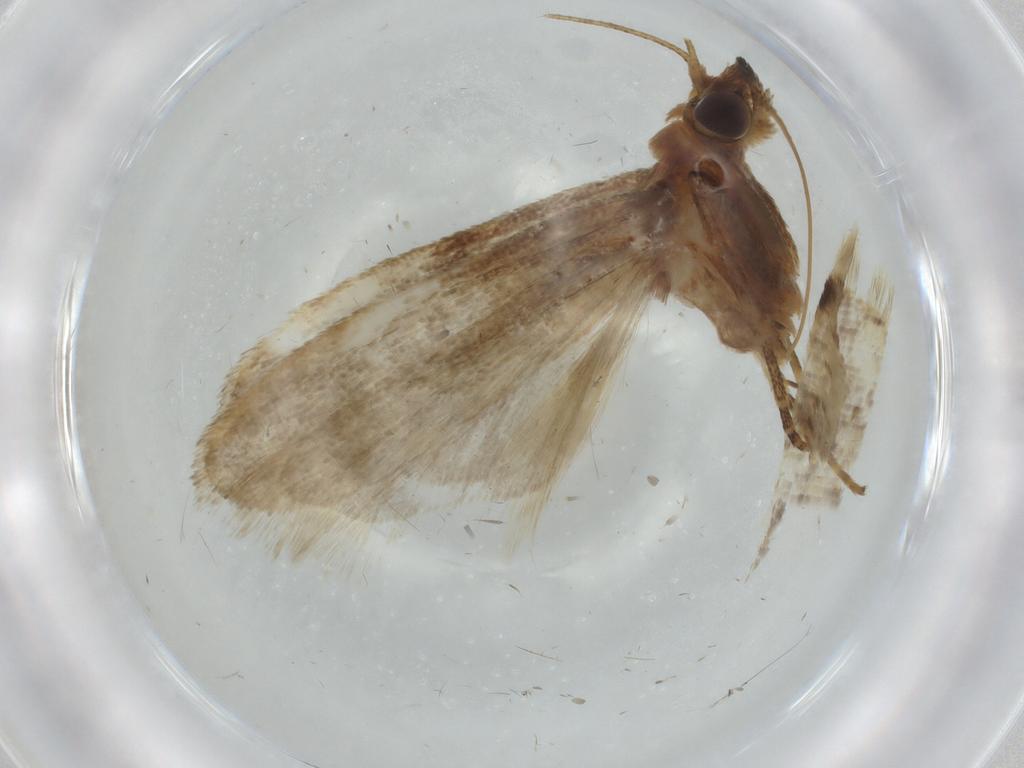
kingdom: Animalia
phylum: Arthropoda
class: Insecta
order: Lepidoptera
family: Pyralidae
